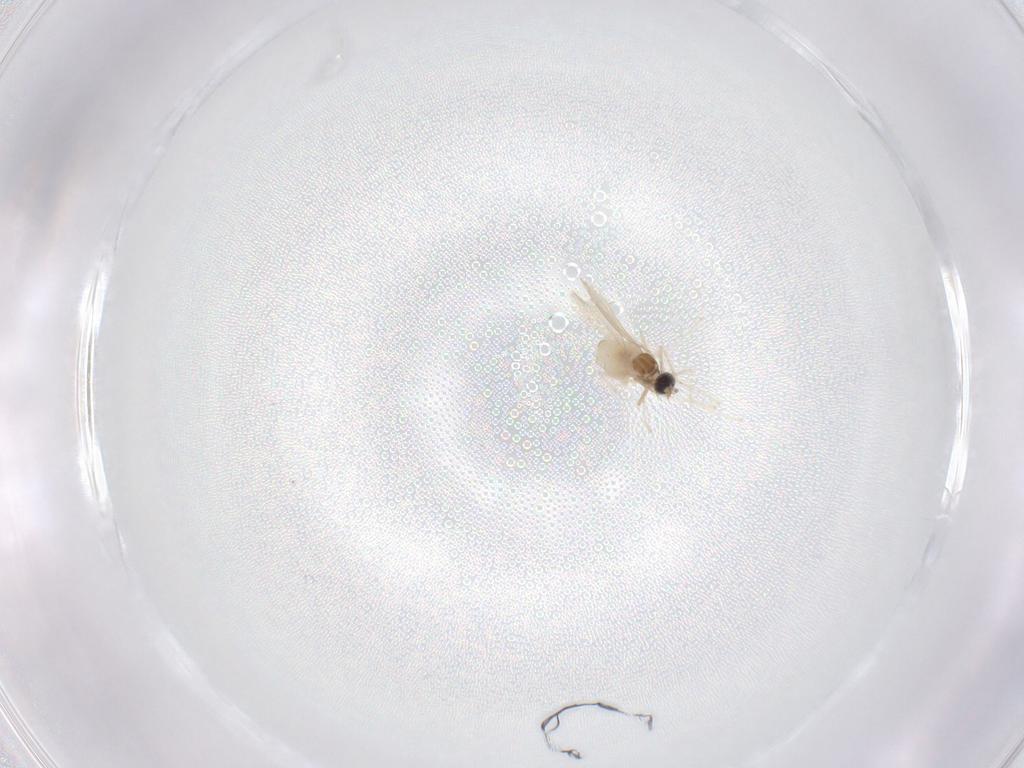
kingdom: Animalia
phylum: Arthropoda
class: Insecta
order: Diptera
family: Cecidomyiidae
